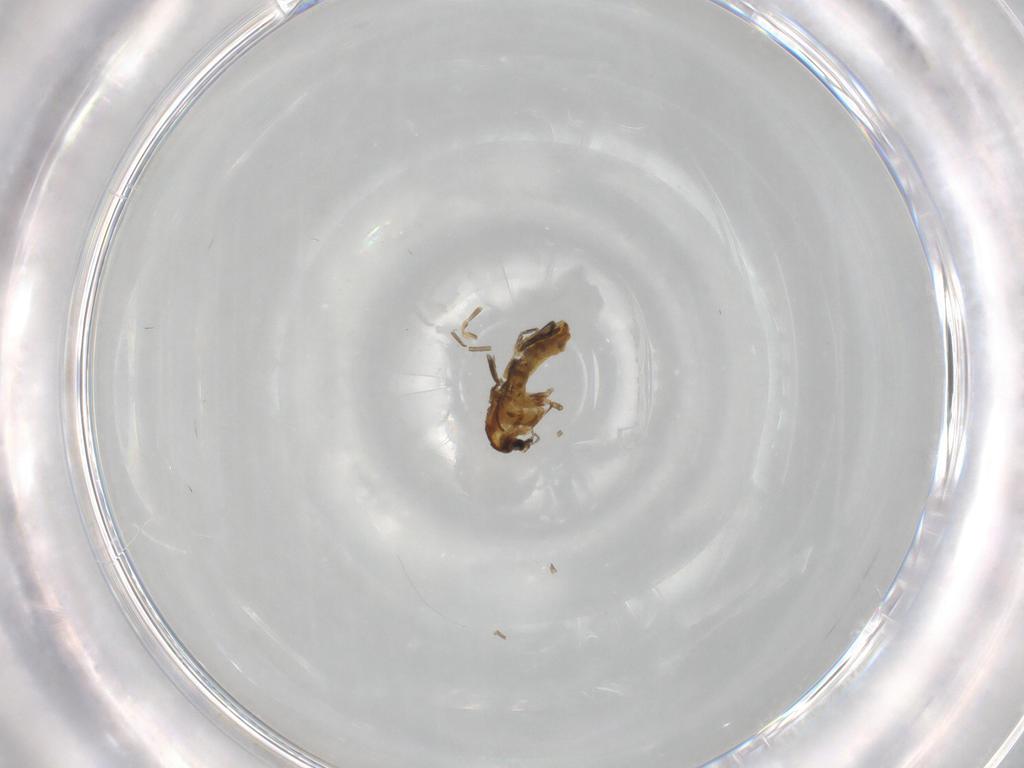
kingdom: Animalia
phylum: Arthropoda
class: Insecta
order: Diptera
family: Chironomidae
